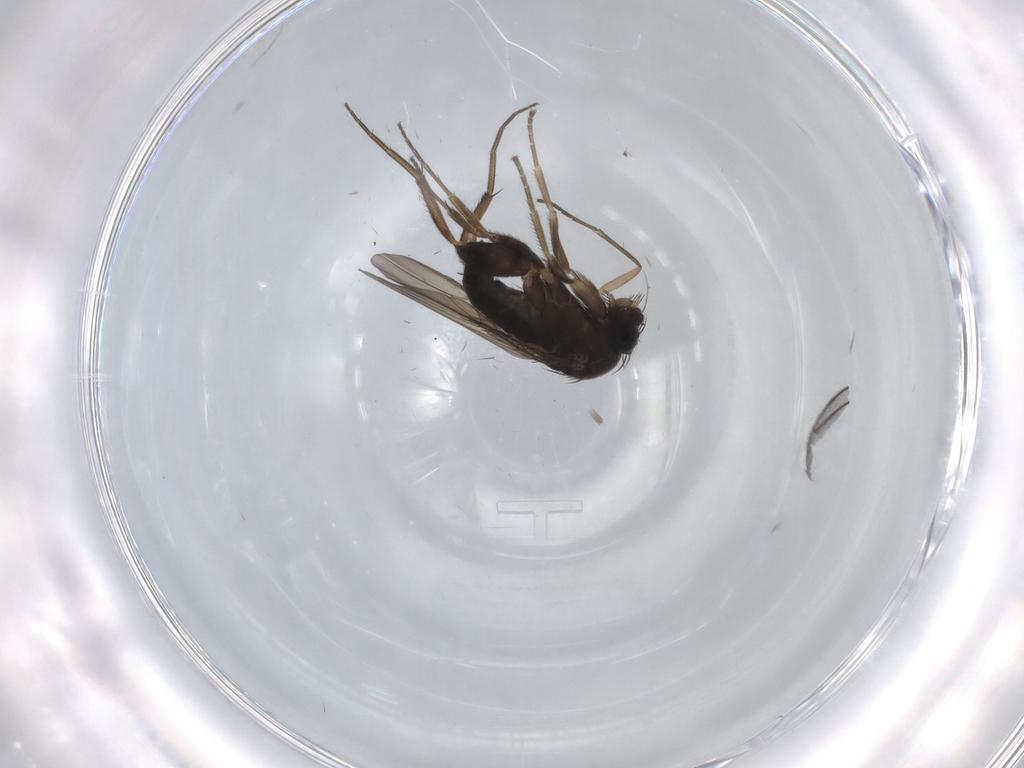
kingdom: Animalia
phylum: Arthropoda
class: Insecta
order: Diptera
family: Phoridae
